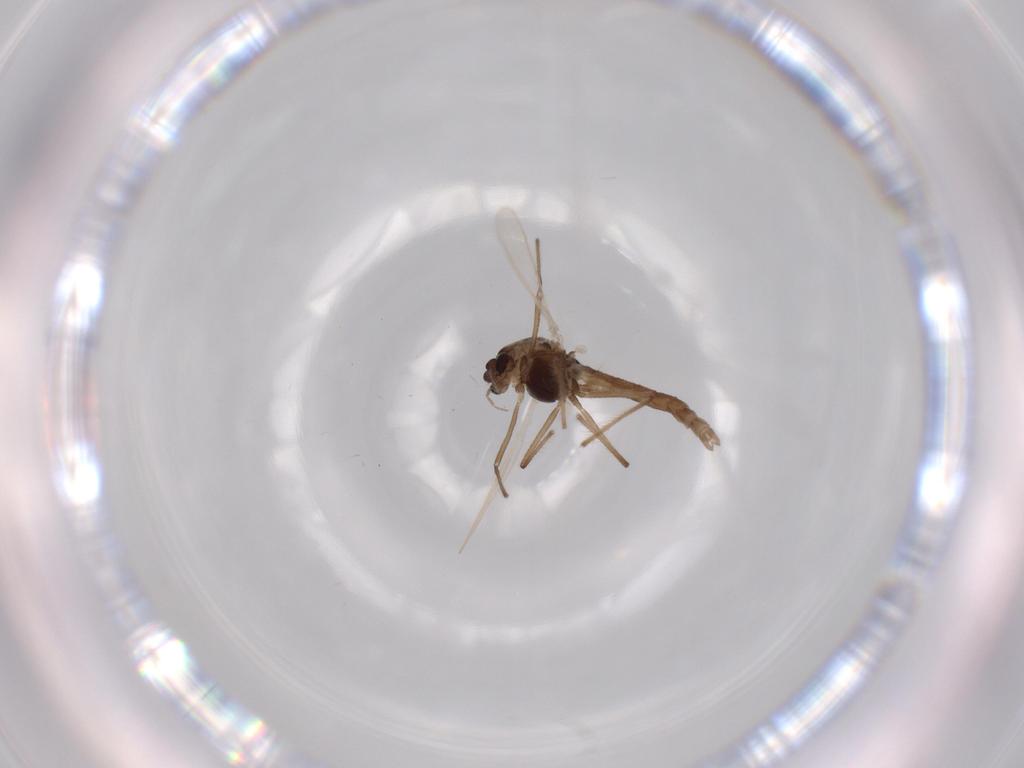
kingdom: Animalia
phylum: Arthropoda
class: Insecta
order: Diptera
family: Chironomidae
